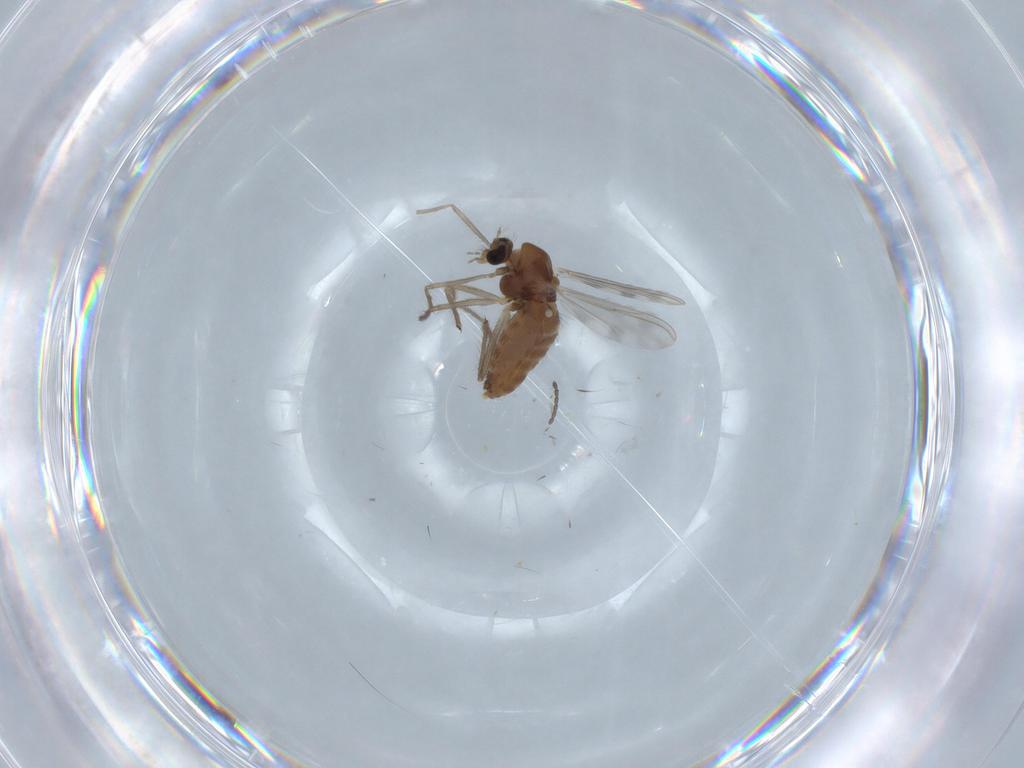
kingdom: Animalia
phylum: Arthropoda
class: Insecta
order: Diptera
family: Chironomidae
